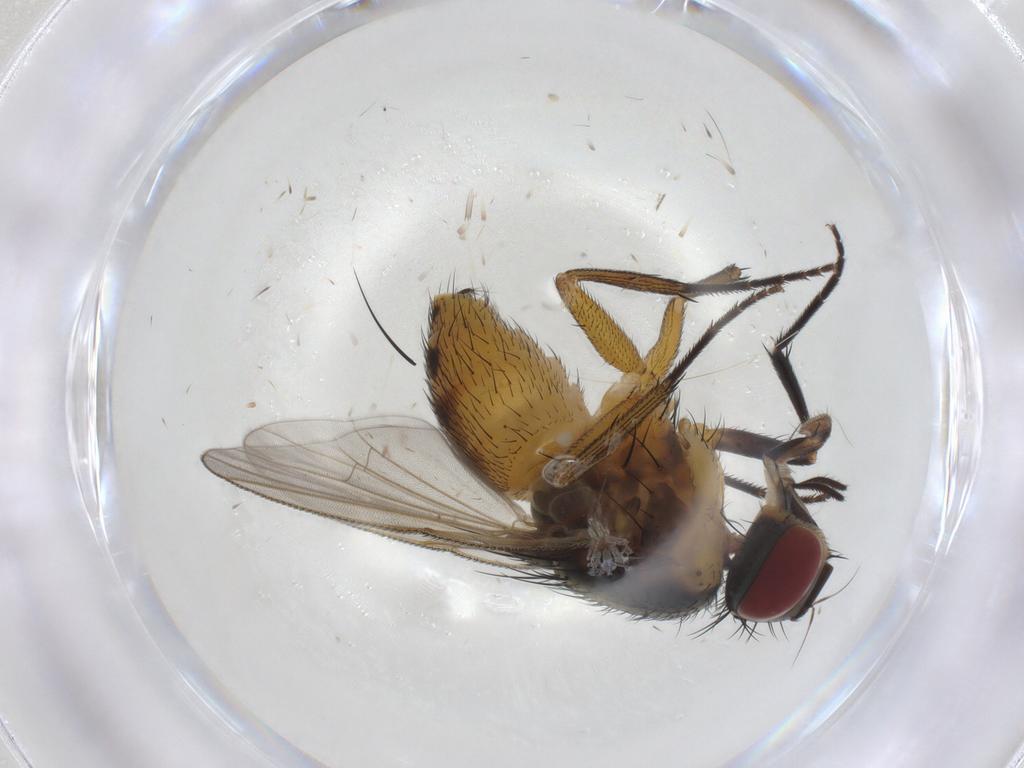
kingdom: Animalia
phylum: Arthropoda
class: Insecta
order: Diptera
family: Muscidae
